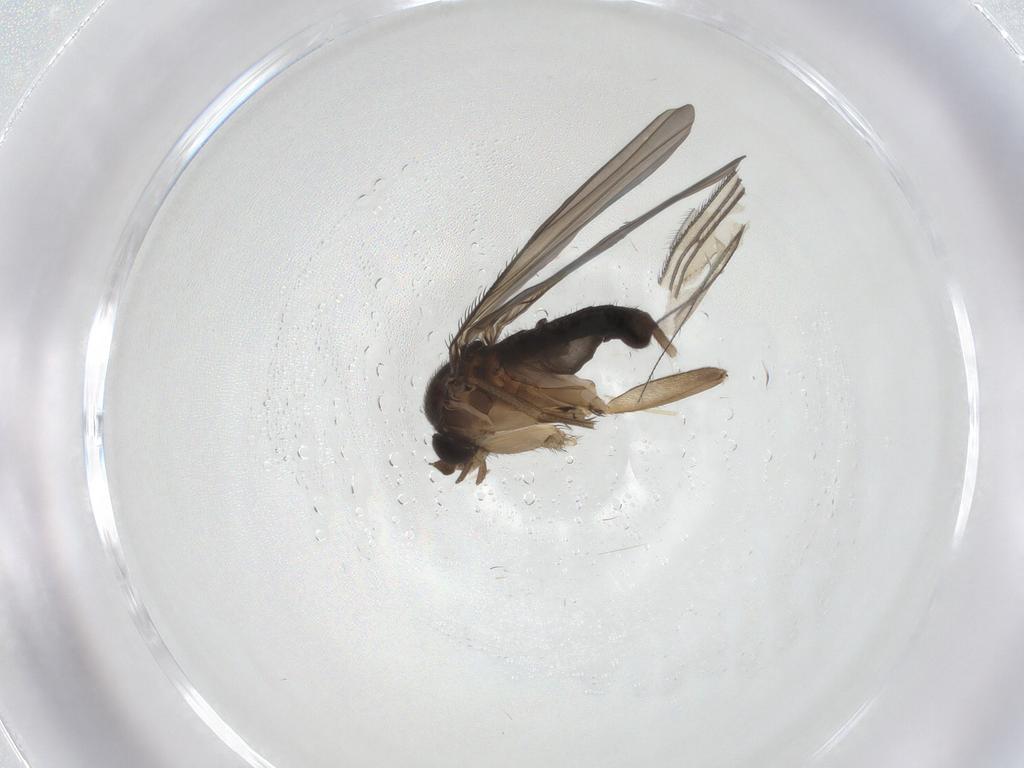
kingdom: Animalia
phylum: Arthropoda
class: Insecta
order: Diptera
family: Phoridae
